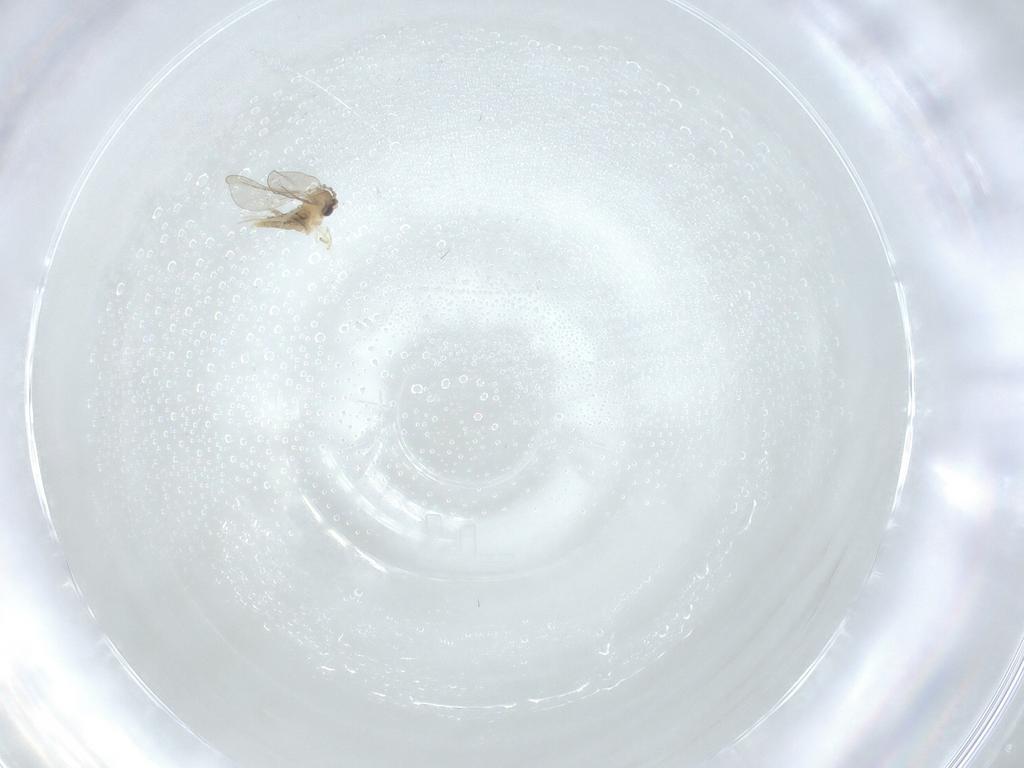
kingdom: Animalia
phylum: Arthropoda
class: Insecta
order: Diptera
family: Cecidomyiidae
